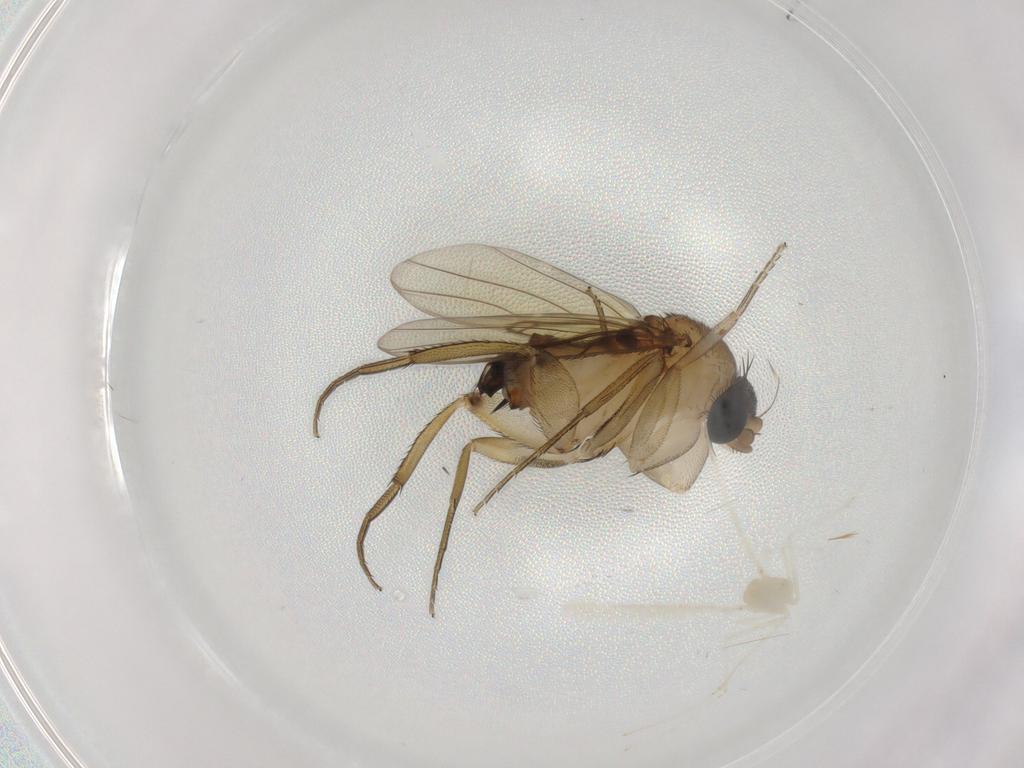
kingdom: Animalia
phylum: Arthropoda
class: Insecta
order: Diptera
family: Cecidomyiidae
